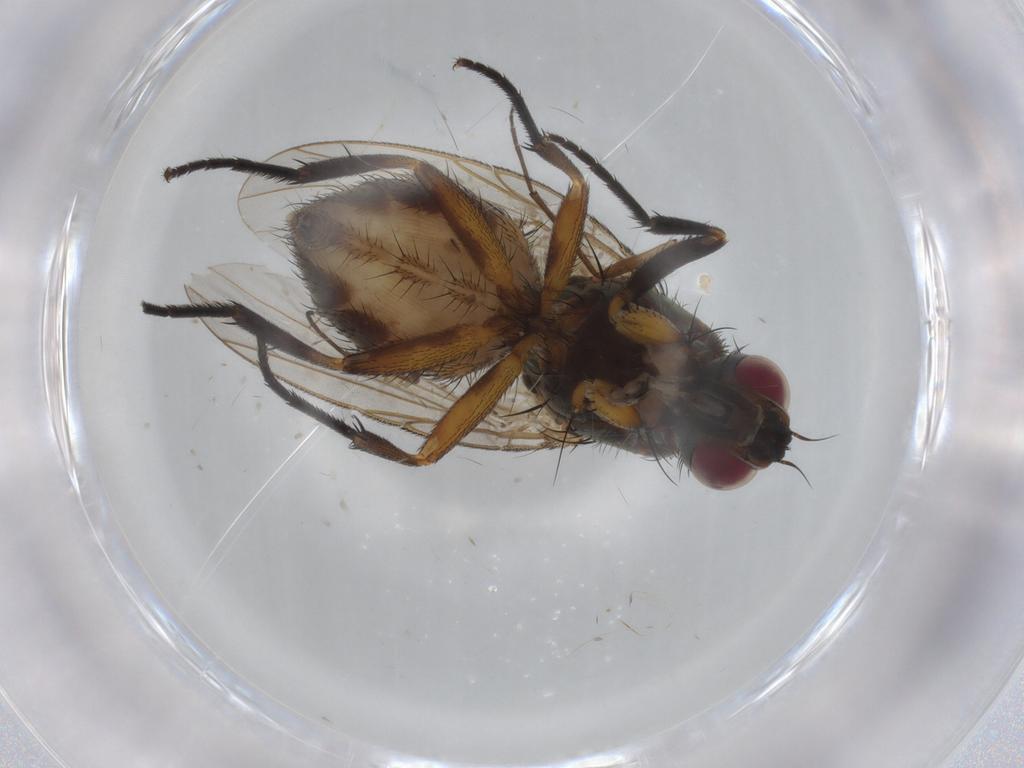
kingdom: Animalia
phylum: Arthropoda
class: Insecta
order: Diptera
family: Muscidae
